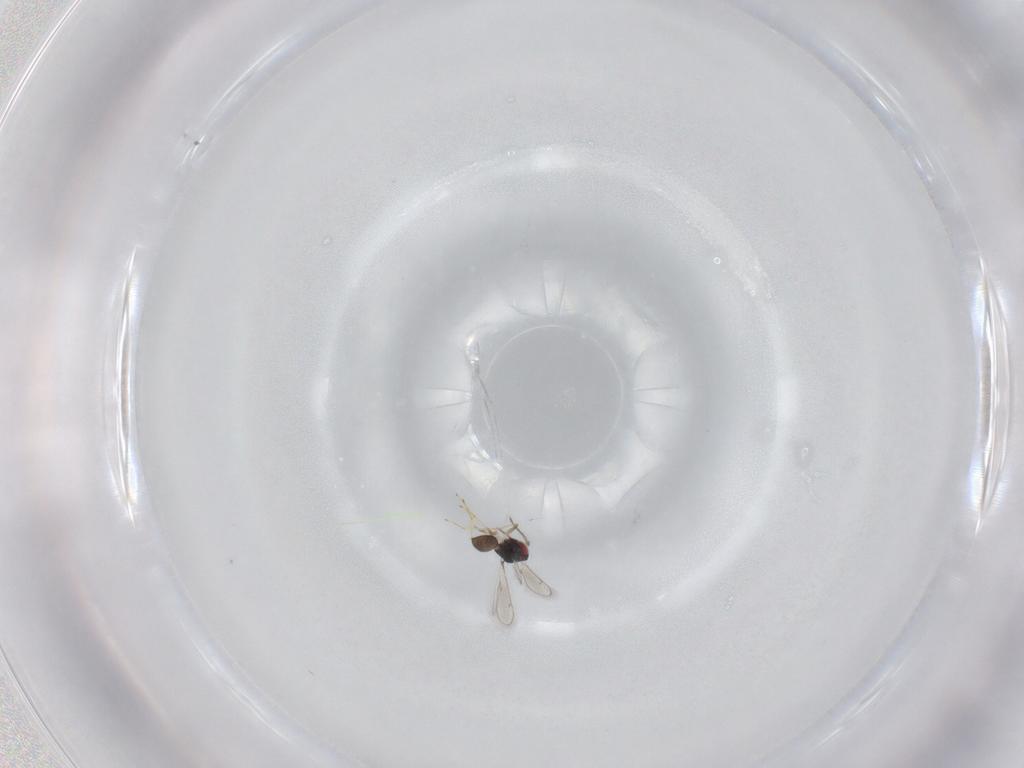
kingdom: Animalia
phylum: Arthropoda
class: Insecta
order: Hymenoptera
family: Eulophidae
